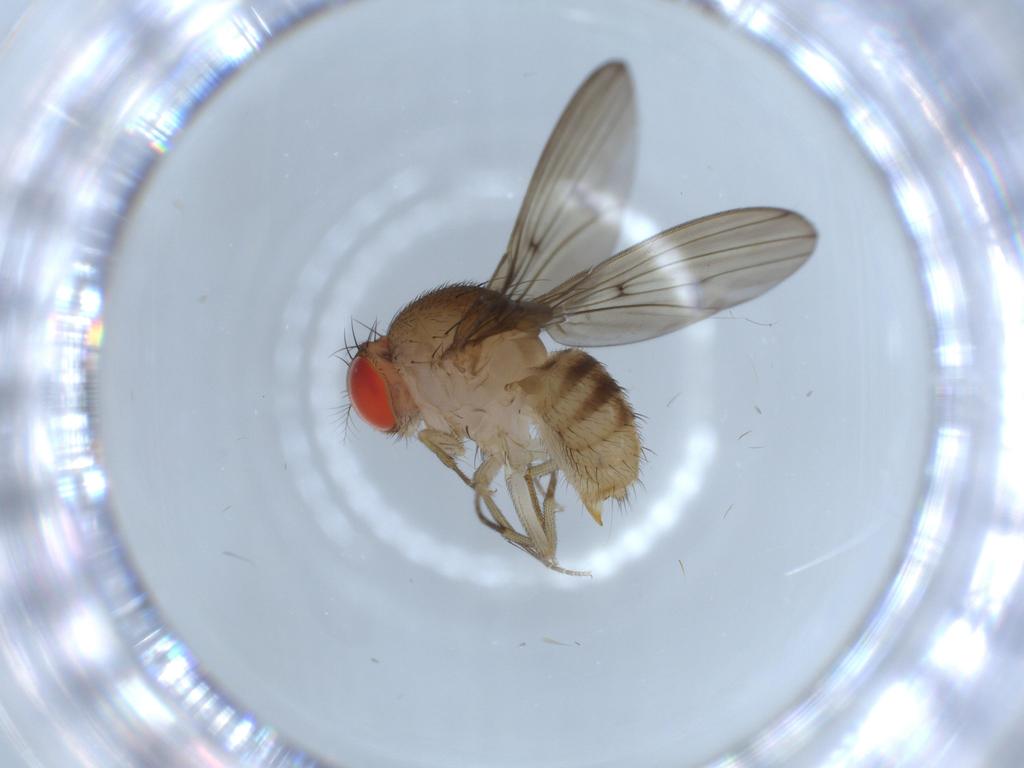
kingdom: Animalia
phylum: Arthropoda
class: Insecta
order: Diptera
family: Drosophilidae
